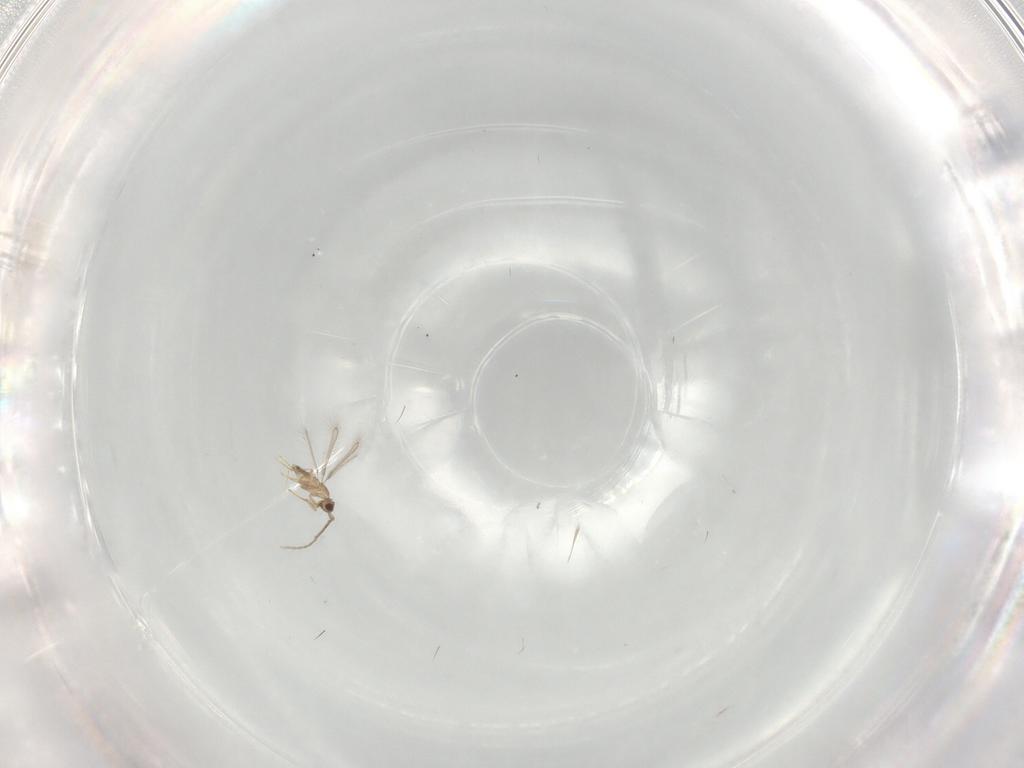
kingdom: Animalia
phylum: Arthropoda
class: Insecta
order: Hymenoptera
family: Mymaridae
